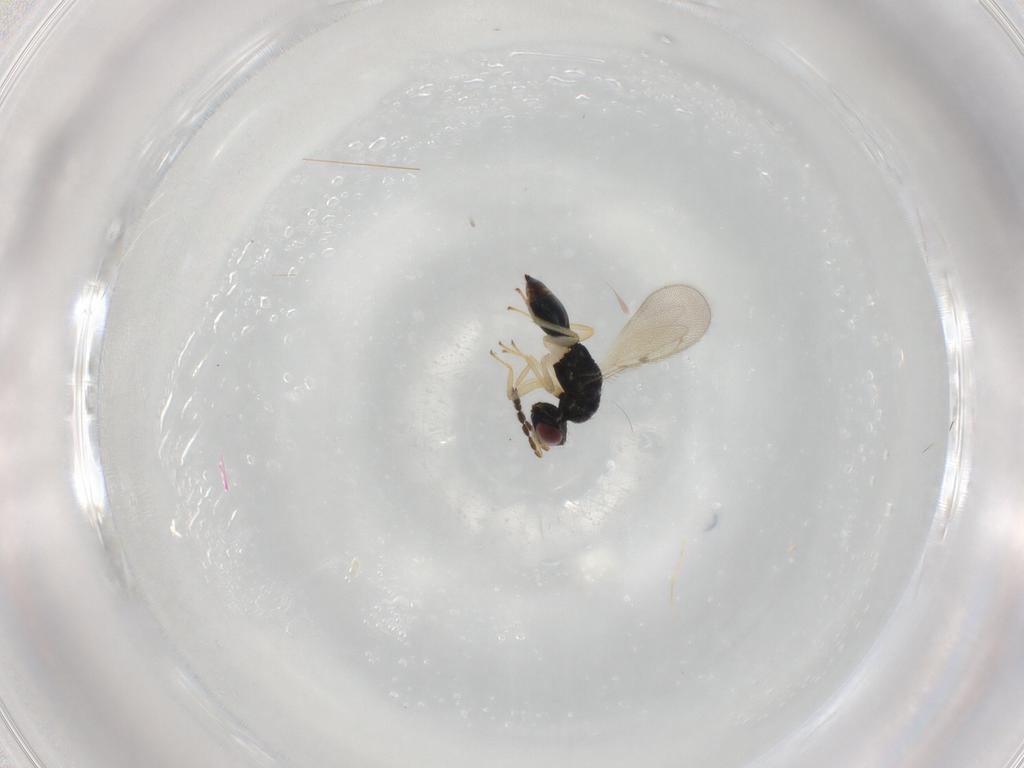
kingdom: Animalia
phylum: Arthropoda
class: Insecta
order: Hymenoptera
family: Eulophidae
